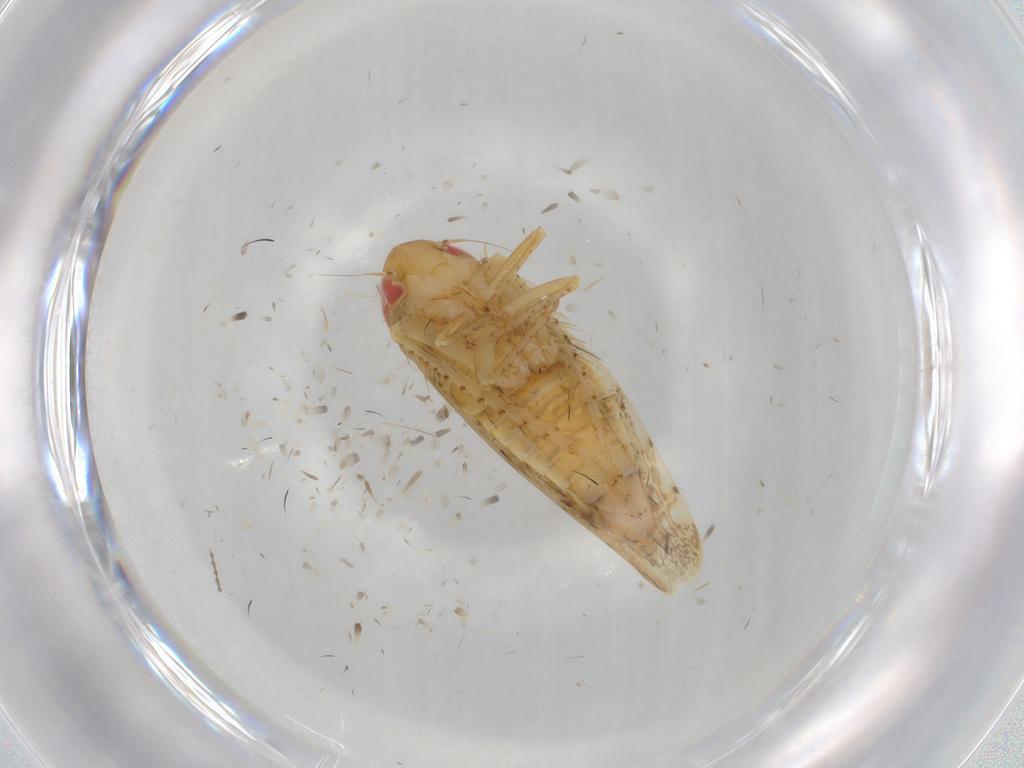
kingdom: Animalia
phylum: Arthropoda
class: Insecta
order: Hemiptera
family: Cicadellidae
